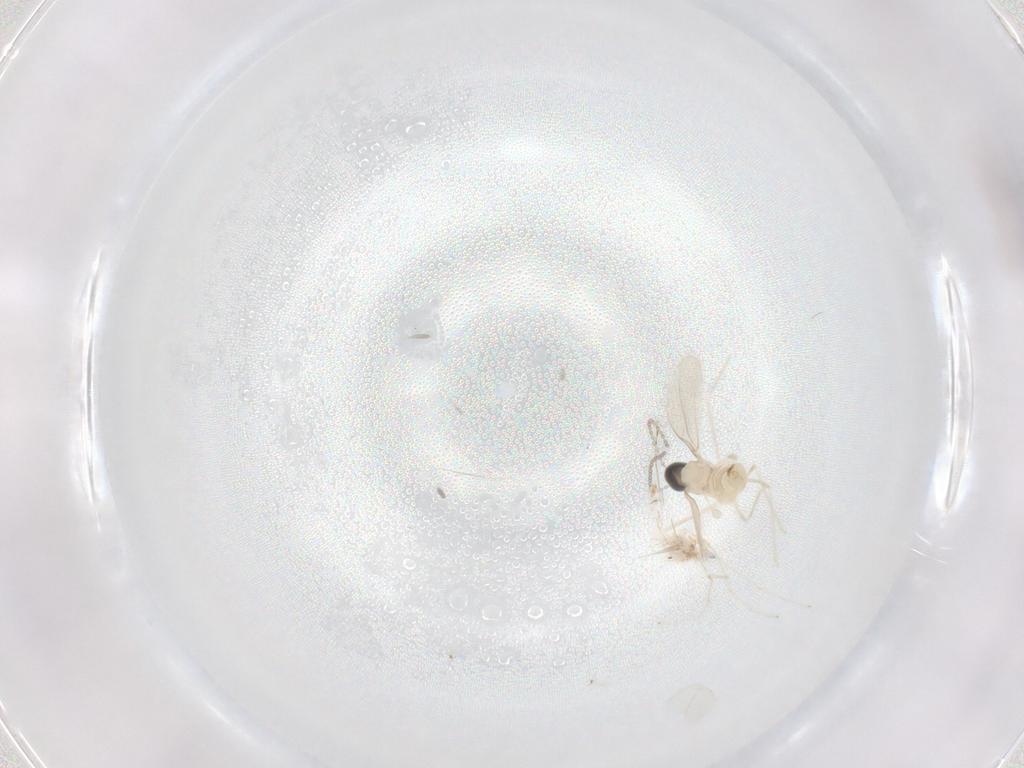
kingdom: Animalia
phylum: Arthropoda
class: Insecta
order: Diptera
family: Cecidomyiidae
